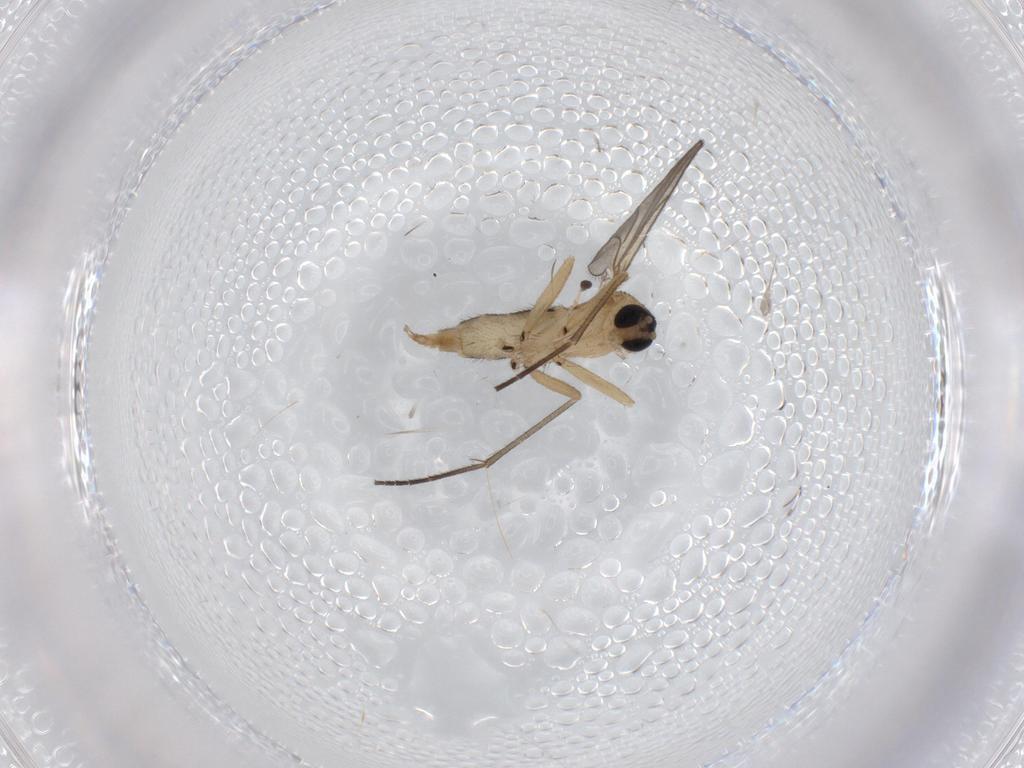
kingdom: Animalia
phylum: Arthropoda
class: Insecta
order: Diptera
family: Sciaridae
